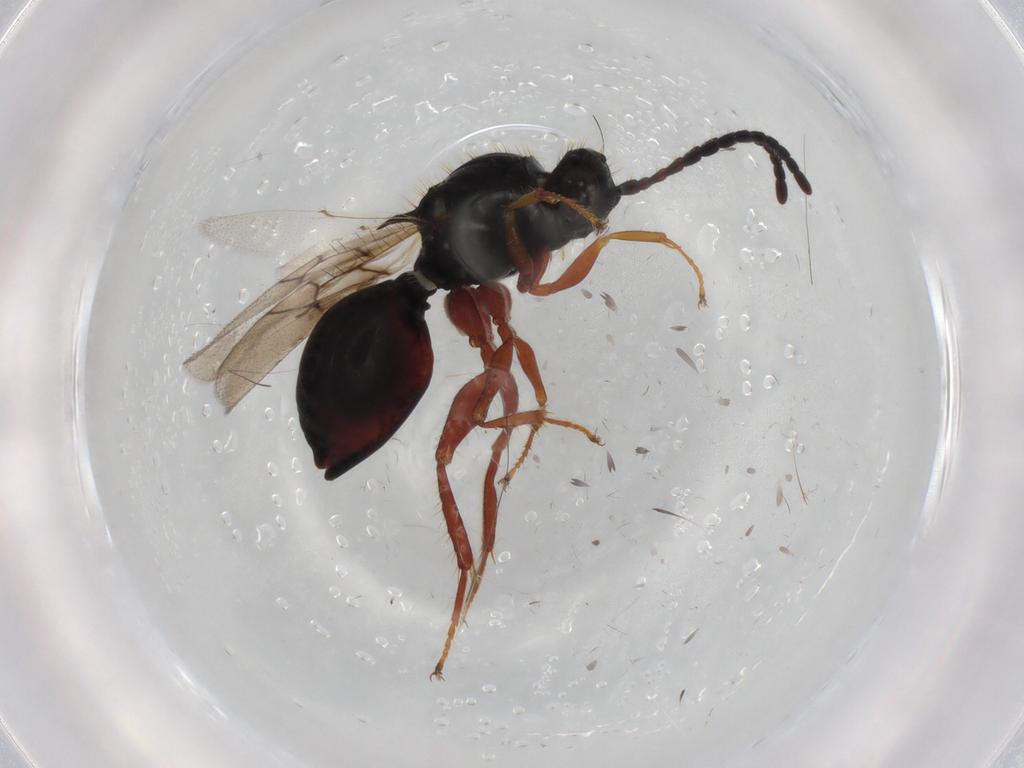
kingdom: Animalia
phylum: Arthropoda
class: Insecta
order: Hymenoptera
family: Figitidae
